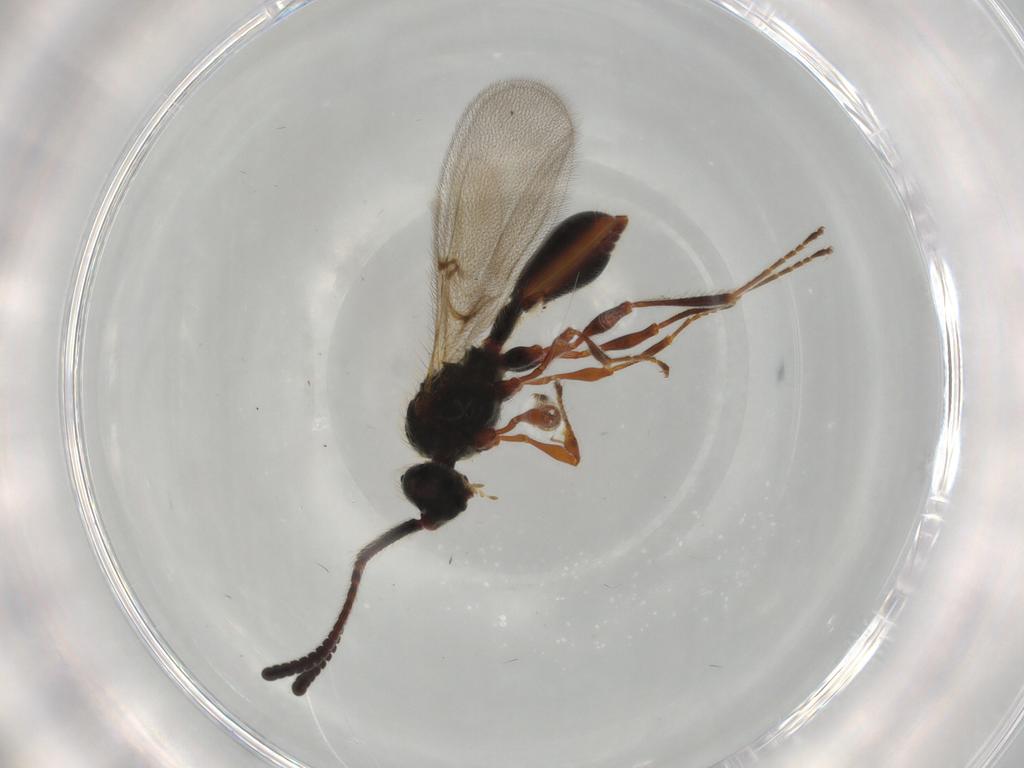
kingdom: Animalia
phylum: Arthropoda
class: Insecta
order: Hymenoptera
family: Diapriidae
